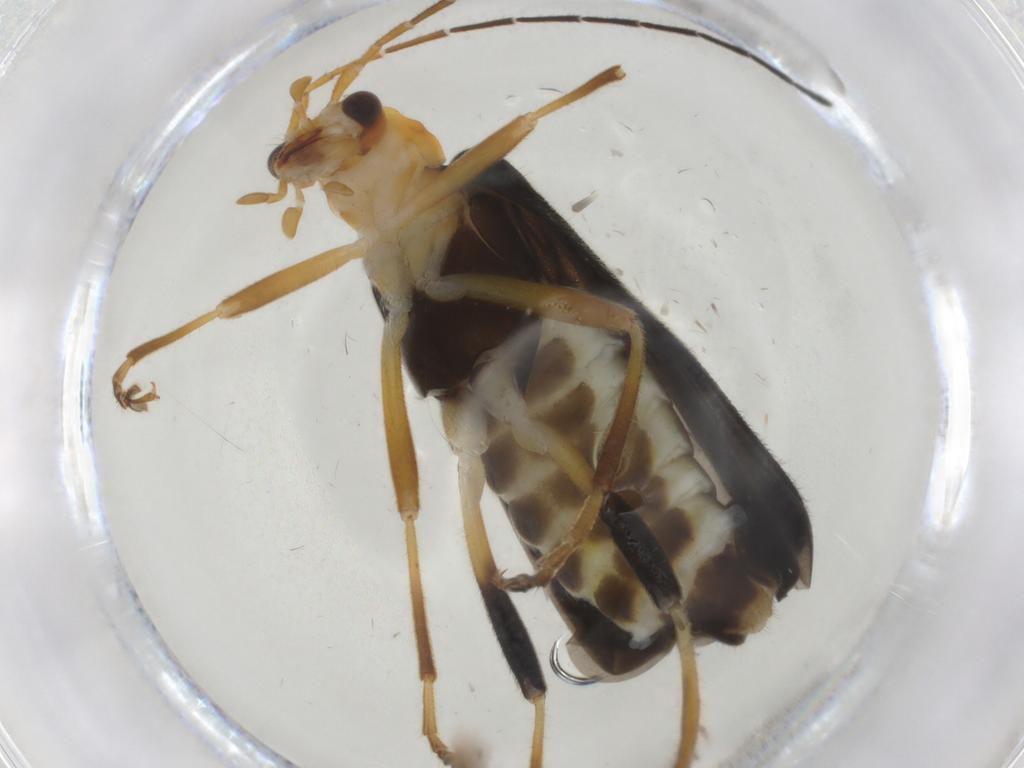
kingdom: Animalia
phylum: Arthropoda
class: Insecta
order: Coleoptera
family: Cantharidae
